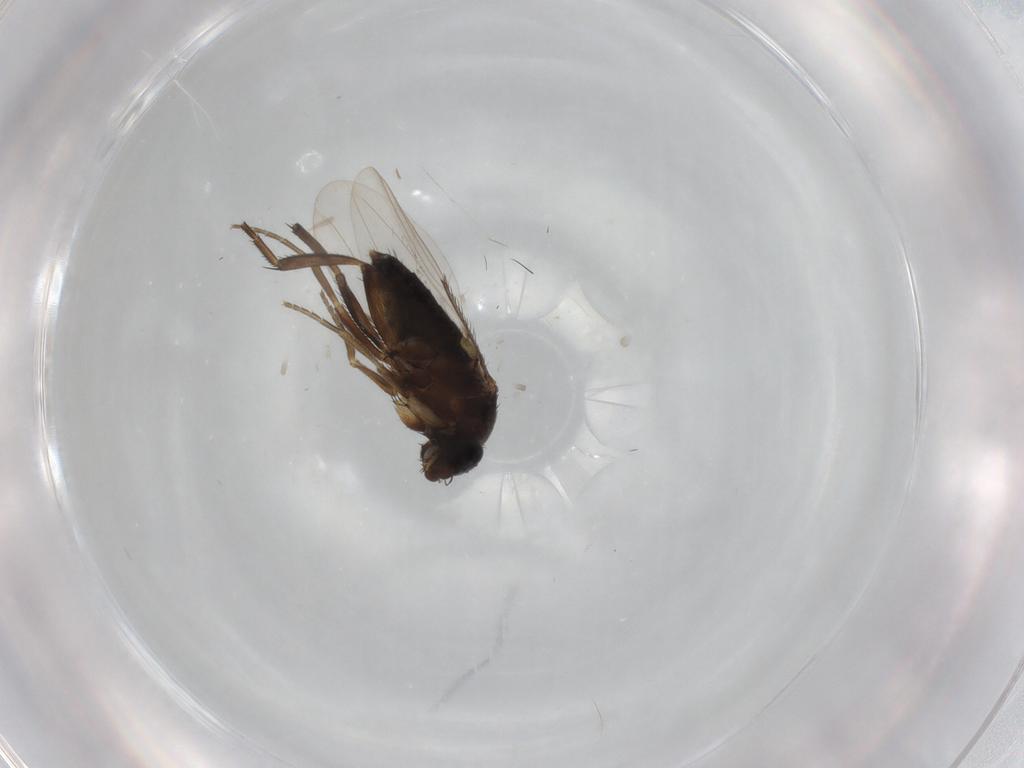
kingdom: Animalia
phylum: Arthropoda
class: Insecta
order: Diptera
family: Phoridae
